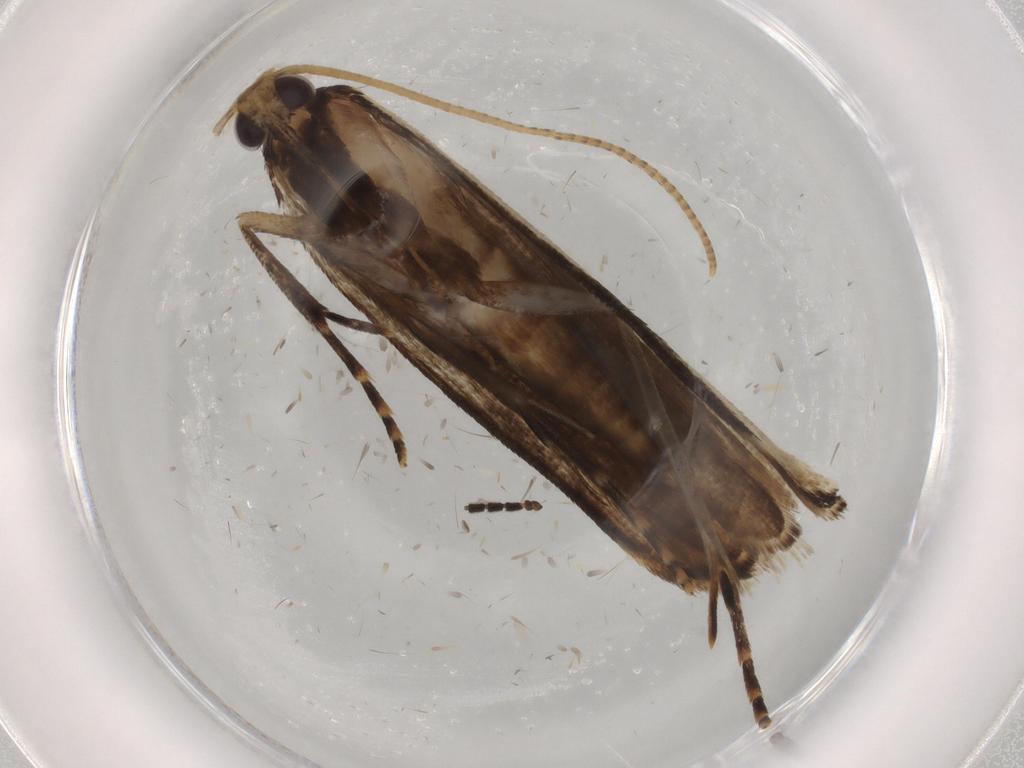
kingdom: Animalia
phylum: Arthropoda
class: Insecta
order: Lepidoptera
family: Gelechiidae
